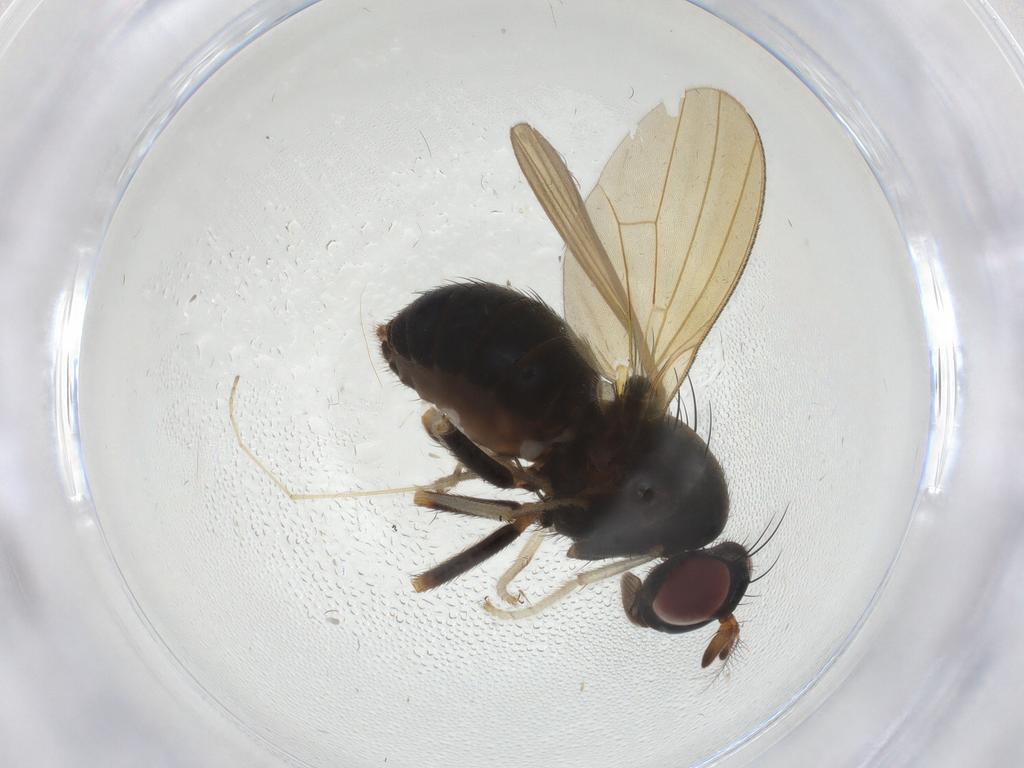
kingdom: Animalia
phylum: Arthropoda
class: Insecta
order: Diptera
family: Sciaridae
